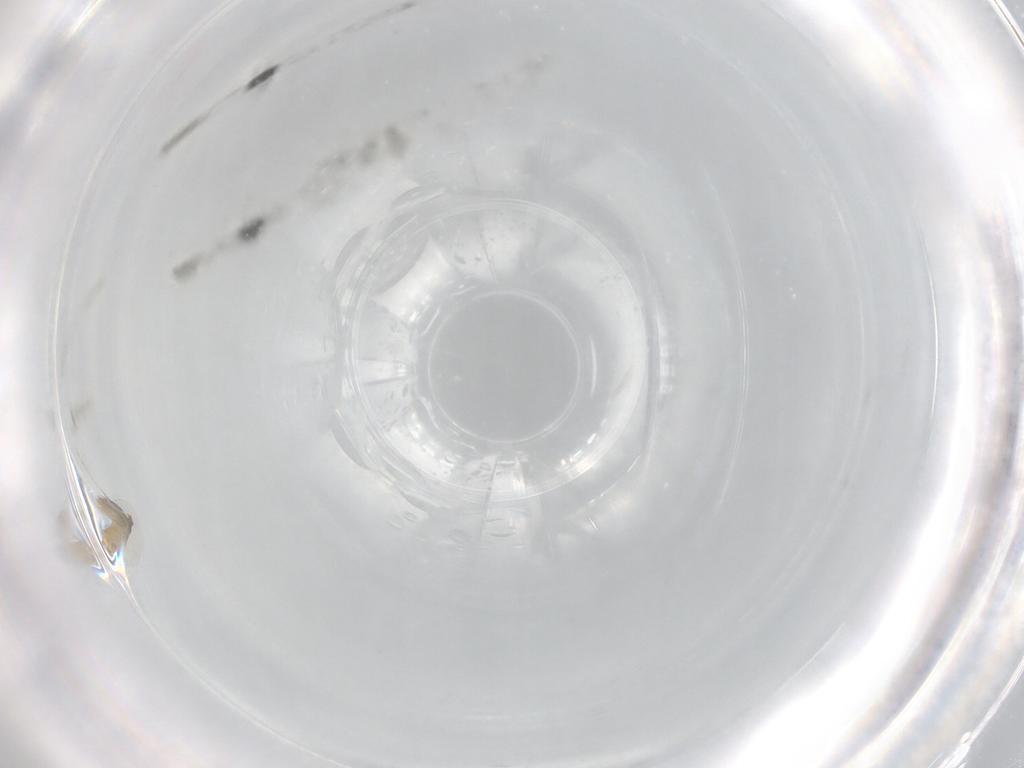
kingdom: Animalia
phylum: Arthropoda
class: Insecta
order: Diptera
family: Cecidomyiidae
